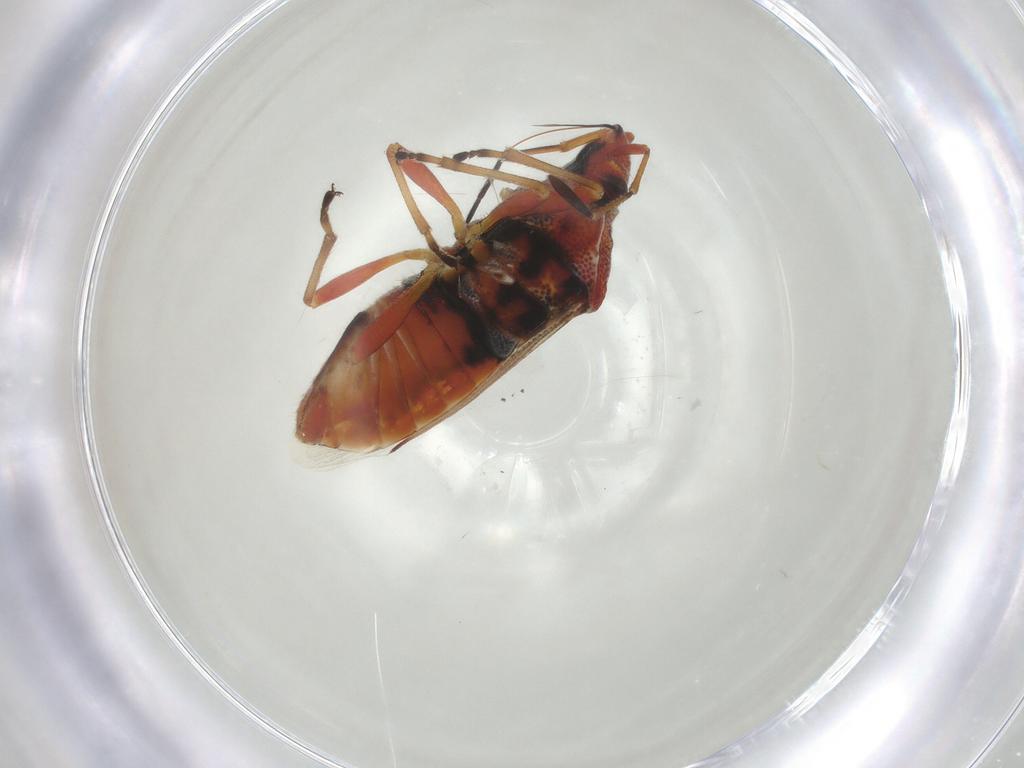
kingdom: Animalia
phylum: Arthropoda
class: Insecta
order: Hemiptera
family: Lygaeidae
